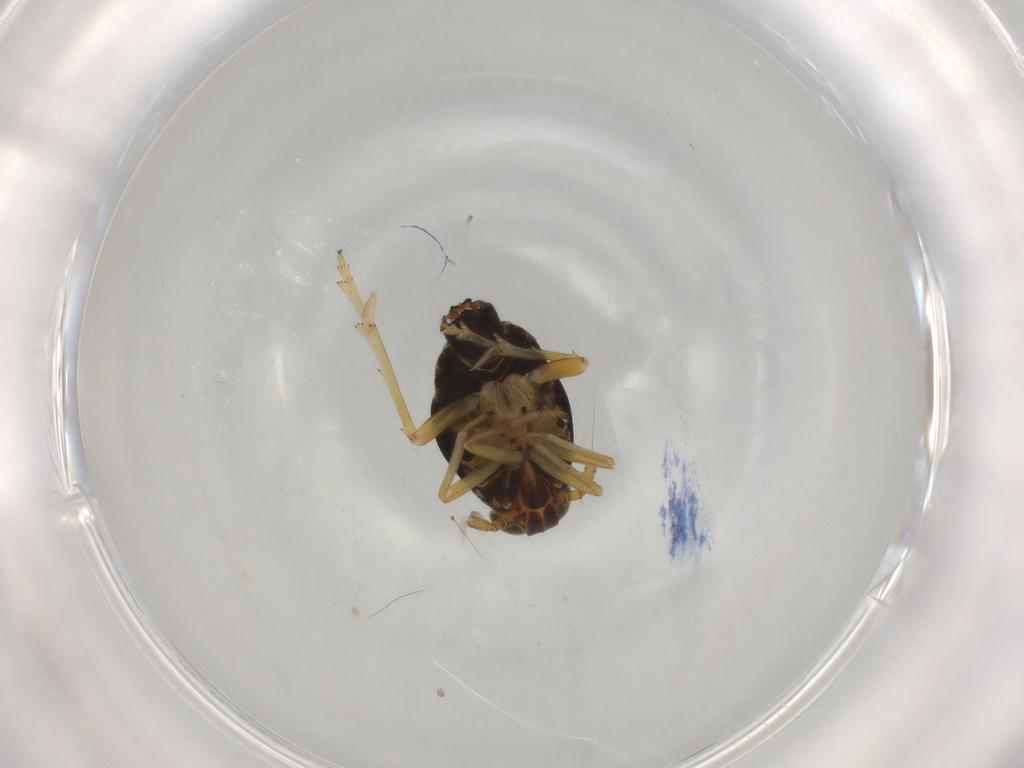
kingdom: Animalia
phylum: Arthropoda
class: Insecta
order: Hemiptera
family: Delphacidae
